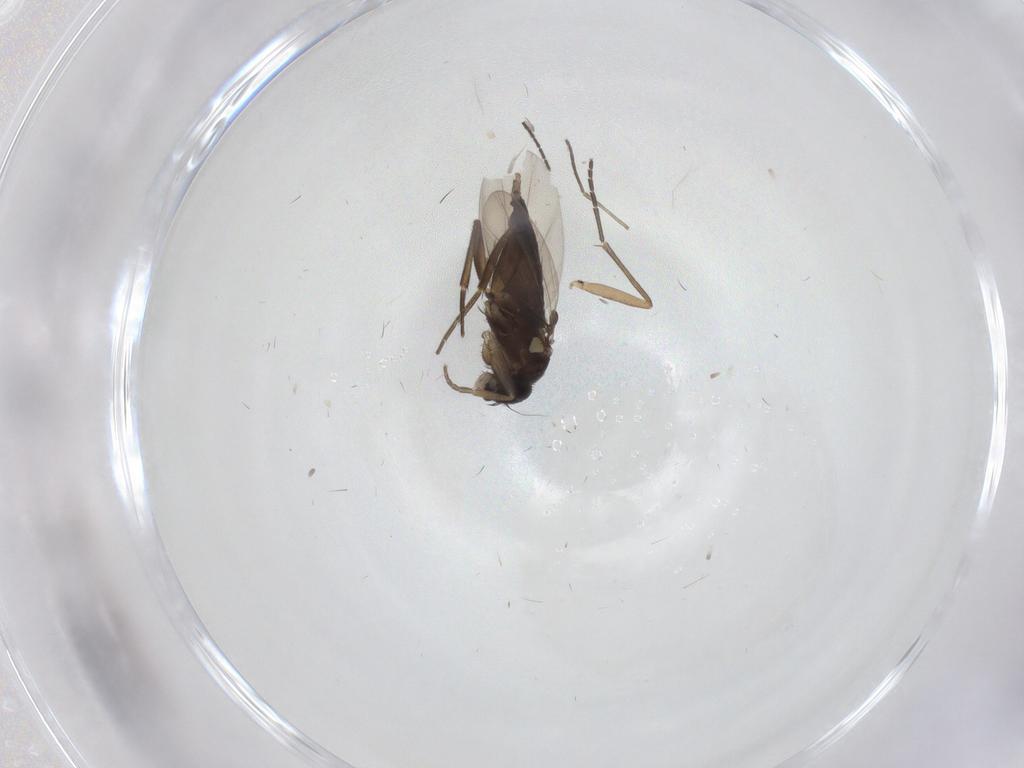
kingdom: Animalia
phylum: Arthropoda
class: Insecta
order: Diptera
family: Phoridae
